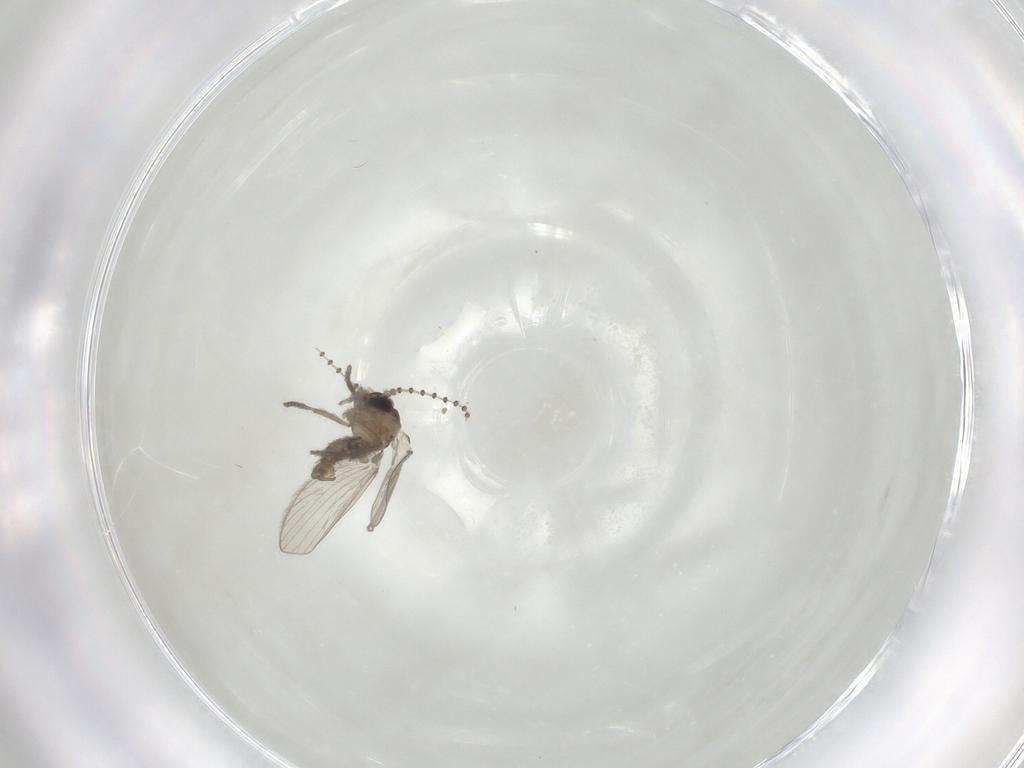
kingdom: Animalia
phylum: Arthropoda
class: Insecta
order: Diptera
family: Psychodidae
